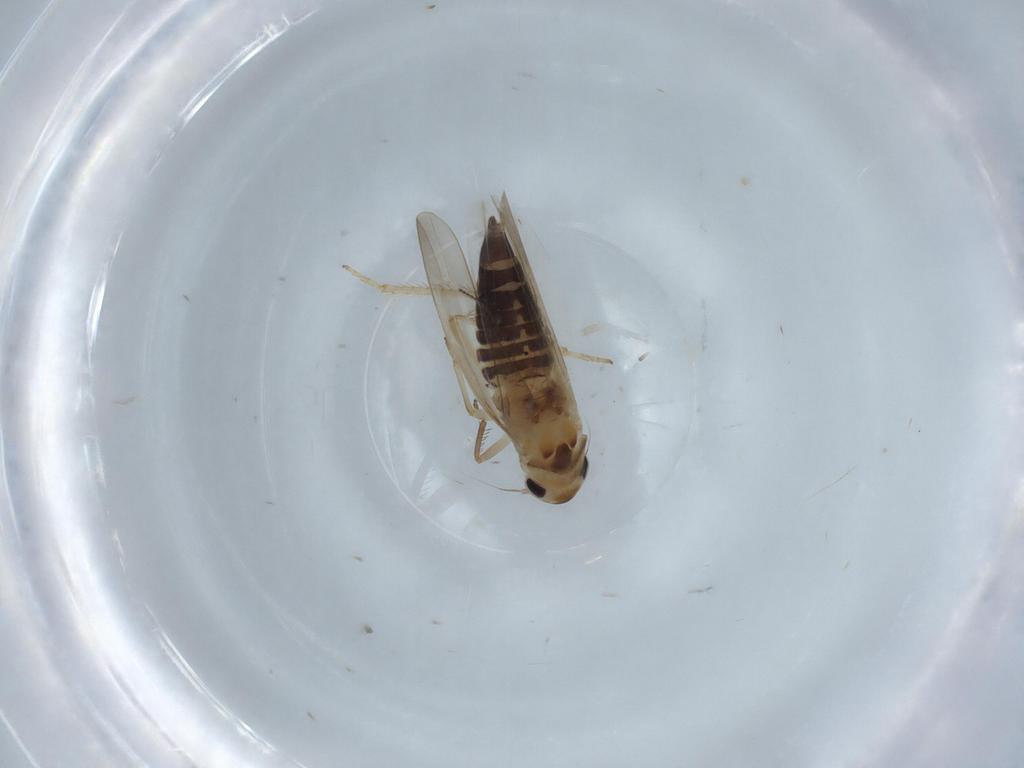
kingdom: Animalia
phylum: Arthropoda
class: Insecta
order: Hemiptera
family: Cicadellidae
